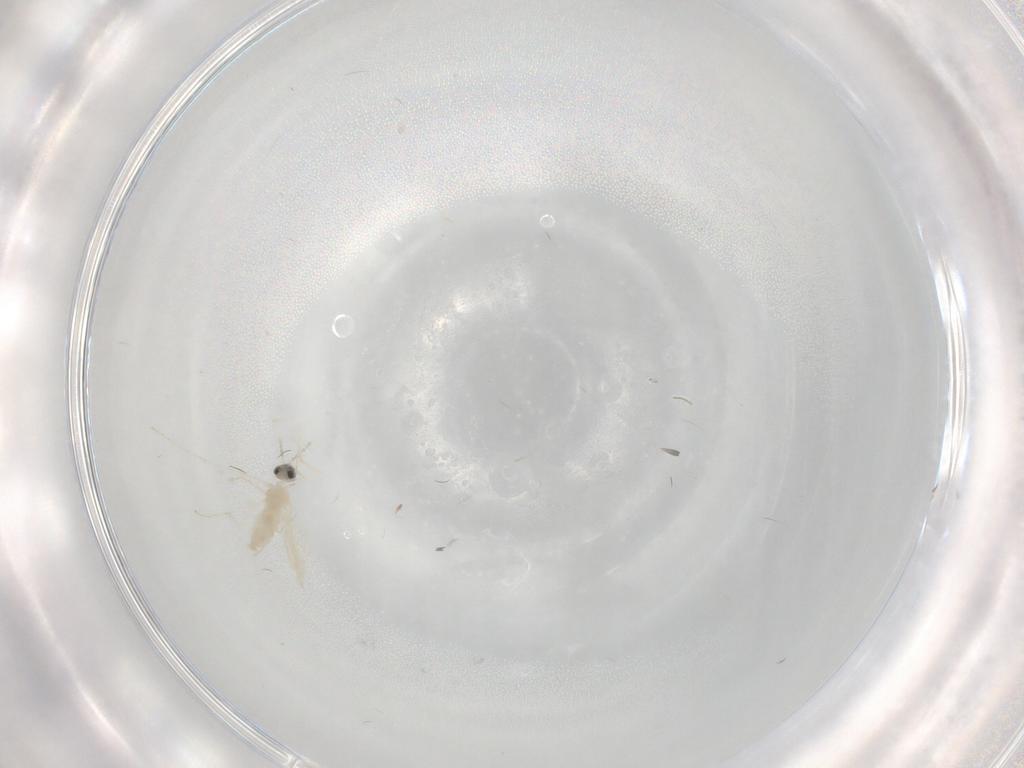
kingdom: Animalia
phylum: Arthropoda
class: Insecta
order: Diptera
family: Cecidomyiidae
